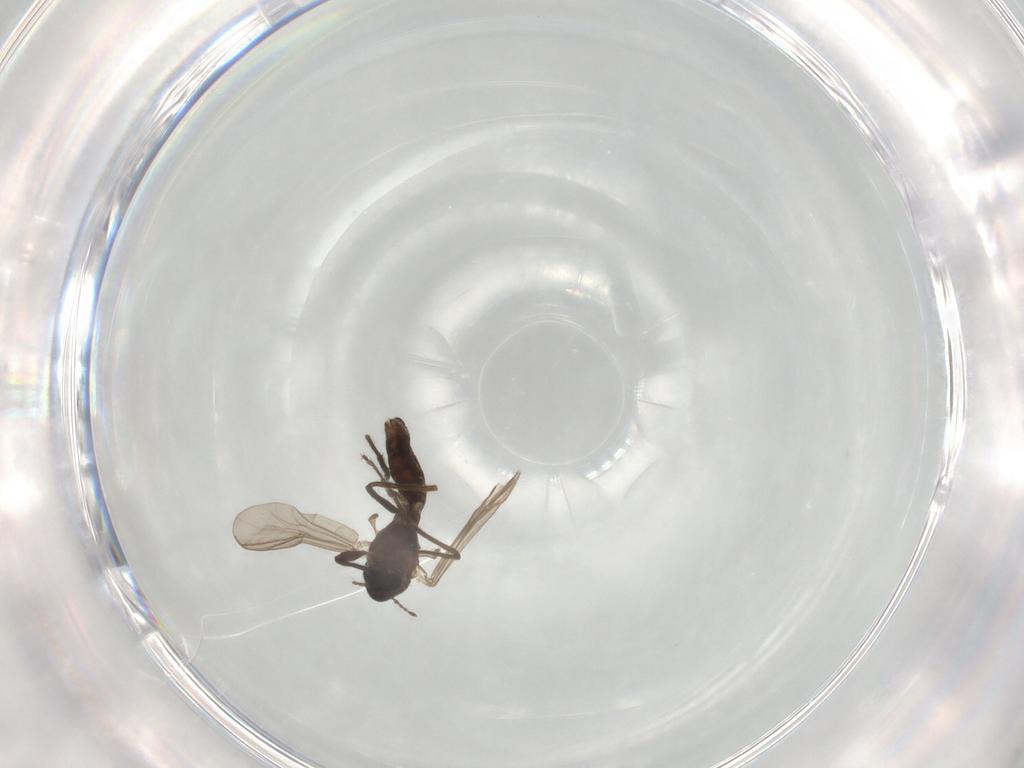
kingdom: Animalia
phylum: Arthropoda
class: Insecta
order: Diptera
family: Chironomidae
